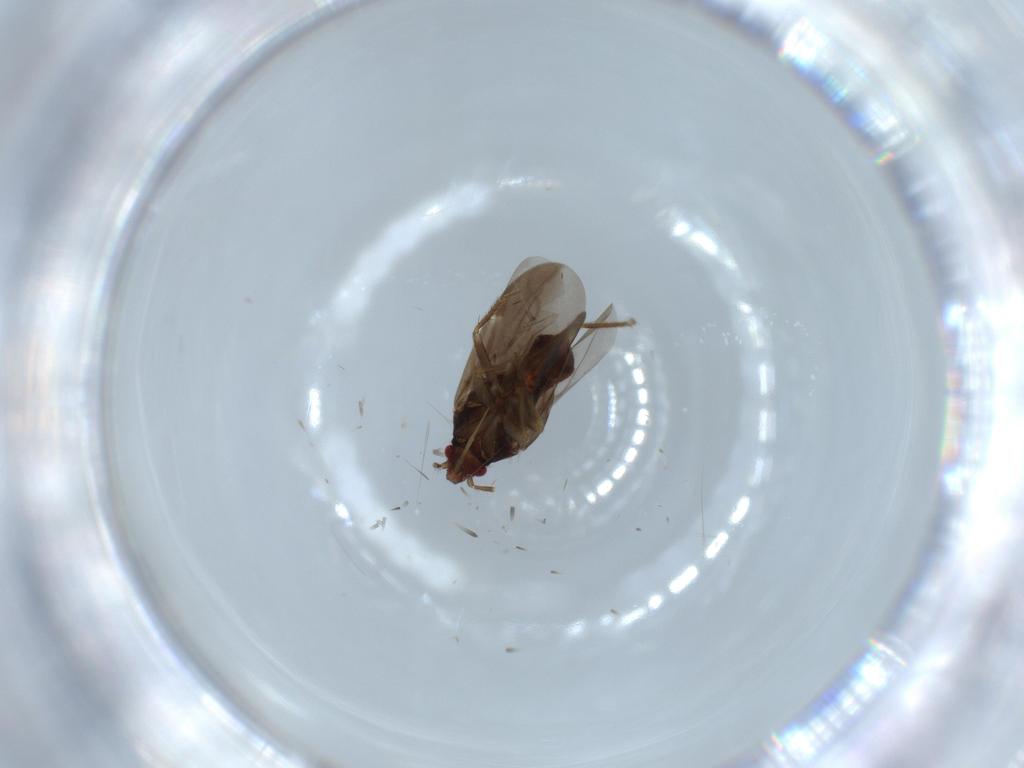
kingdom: Animalia
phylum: Arthropoda
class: Insecta
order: Hemiptera
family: Ceratocombidae
